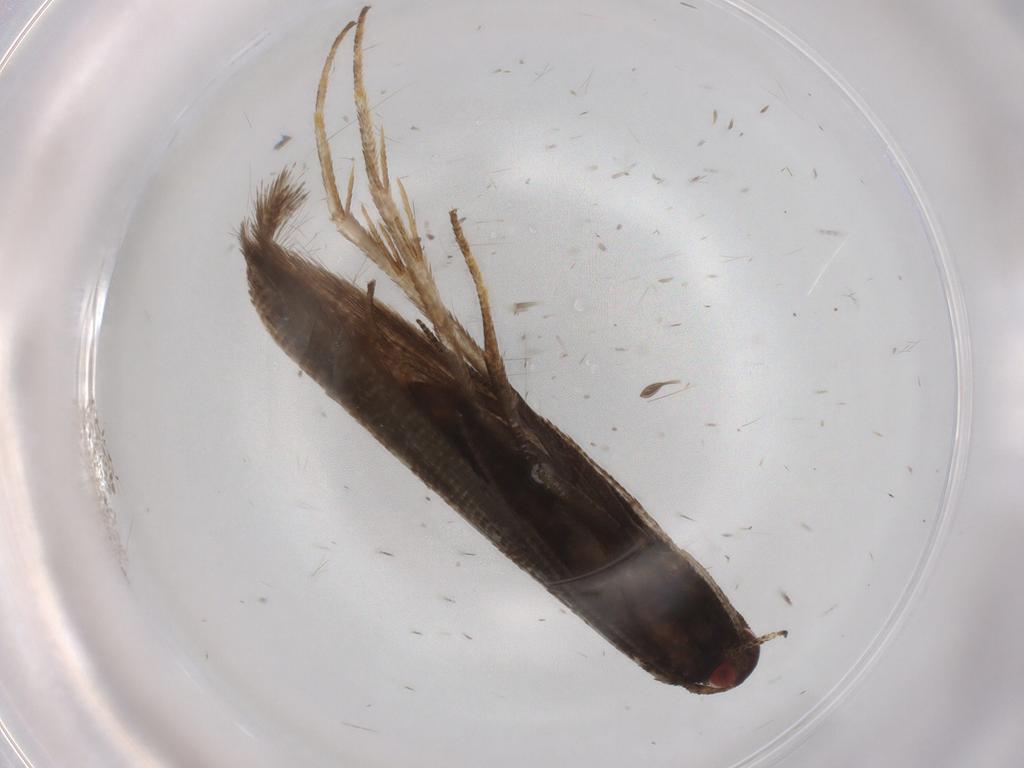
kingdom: Animalia
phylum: Arthropoda
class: Insecta
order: Lepidoptera
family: Momphidae
